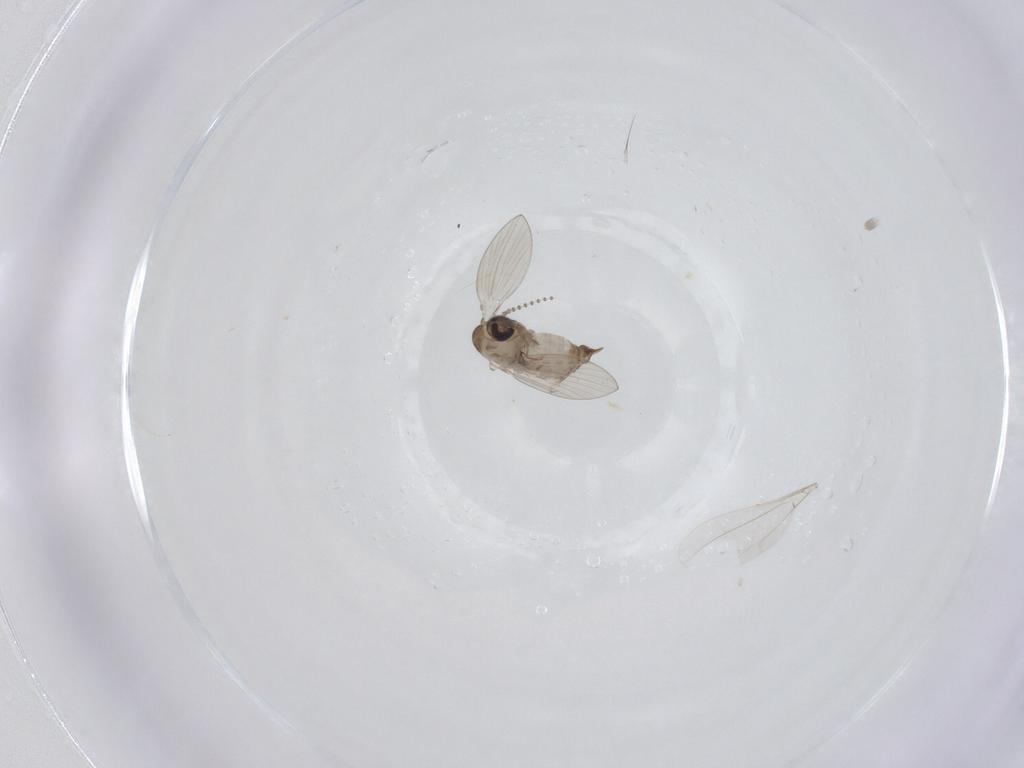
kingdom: Animalia
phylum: Arthropoda
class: Insecta
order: Diptera
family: Psychodidae
